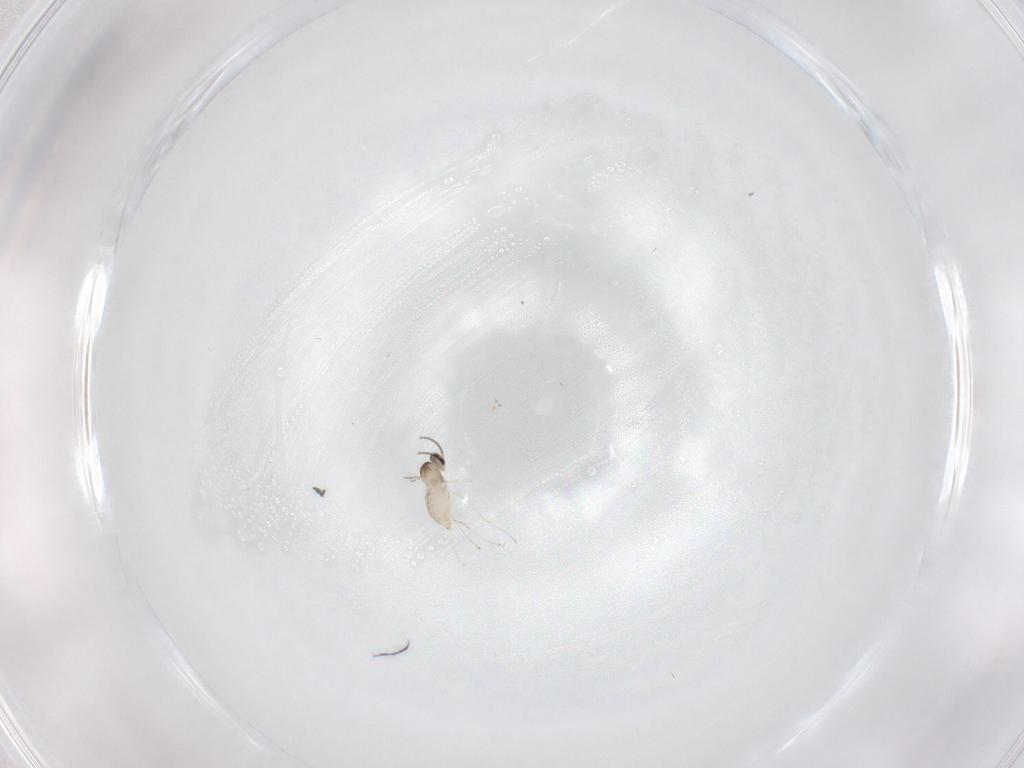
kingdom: Animalia
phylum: Arthropoda
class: Insecta
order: Diptera
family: Cecidomyiidae
